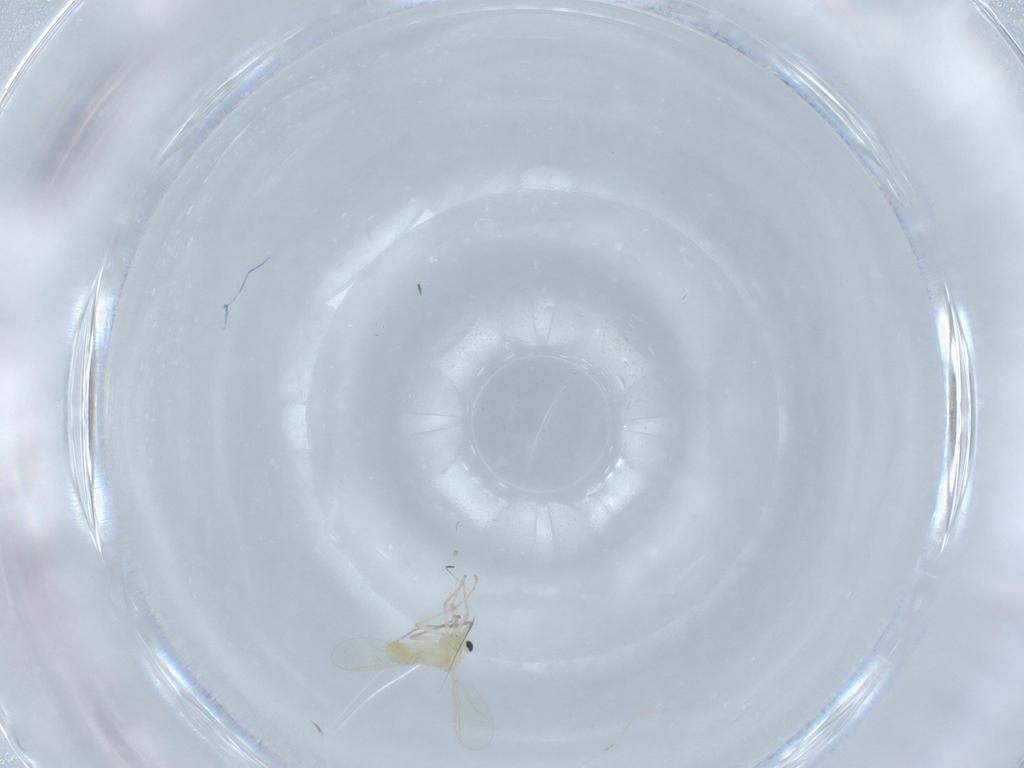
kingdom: Animalia
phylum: Arthropoda
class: Insecta
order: Diptera
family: Chironomidae
